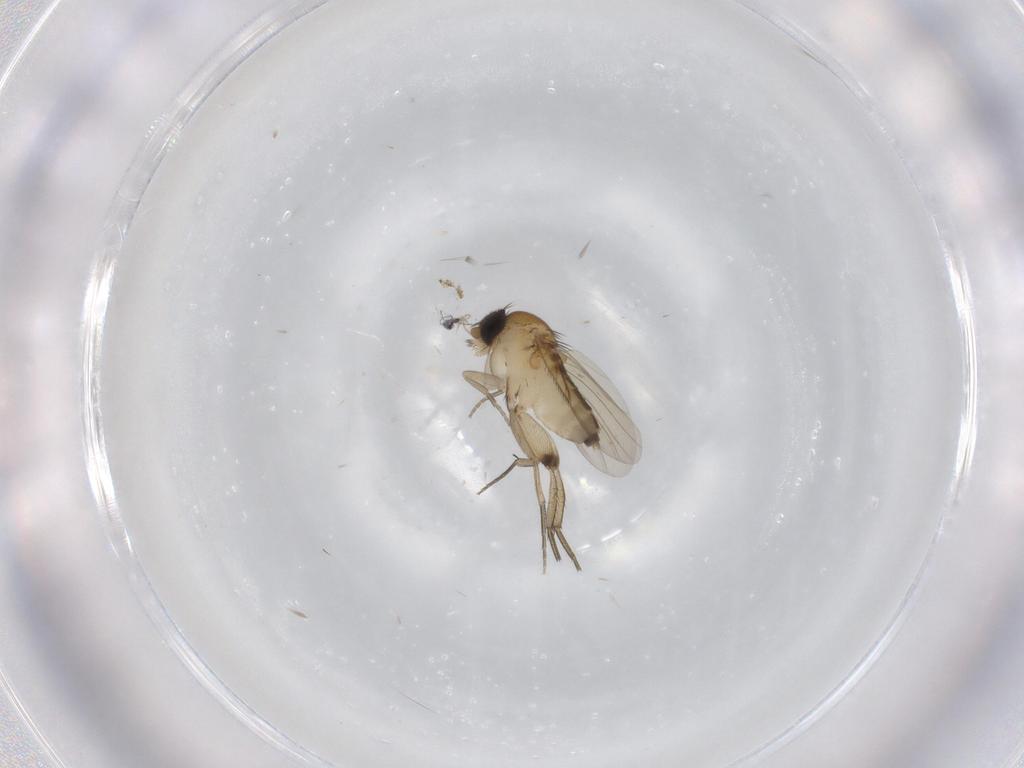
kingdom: Animalia
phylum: Arthropoda
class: Insecta
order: Diptera
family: Phoridae
